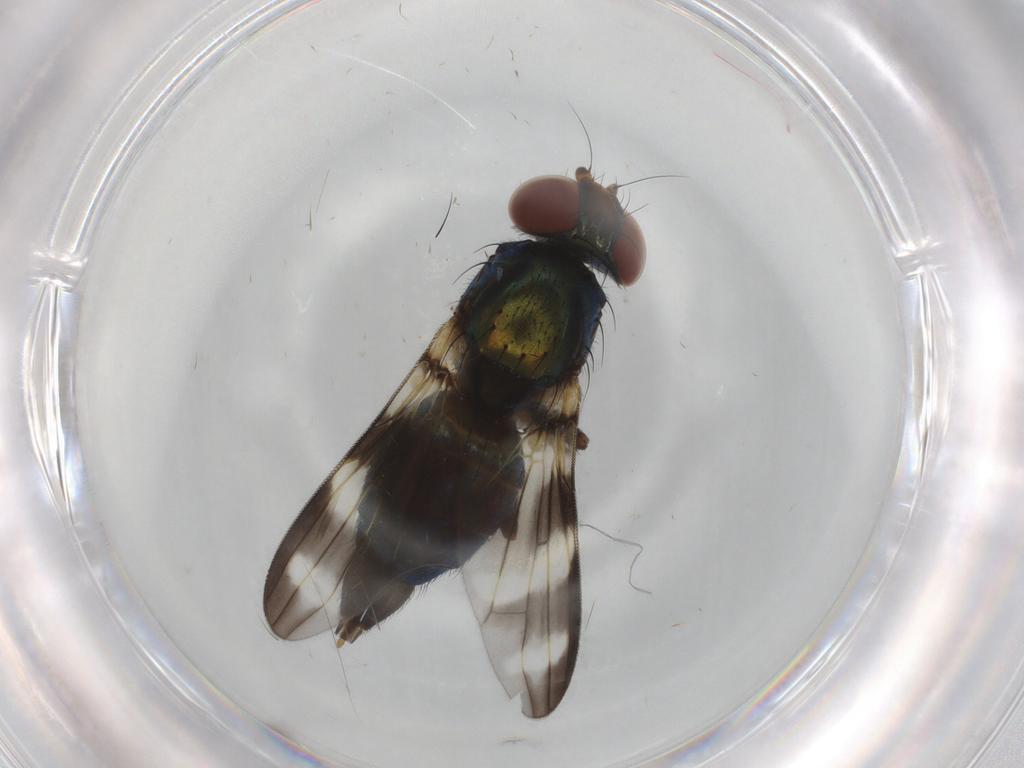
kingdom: Animalia
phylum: Arthropoda
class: Insecta
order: Diptera
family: Ulidiidae
